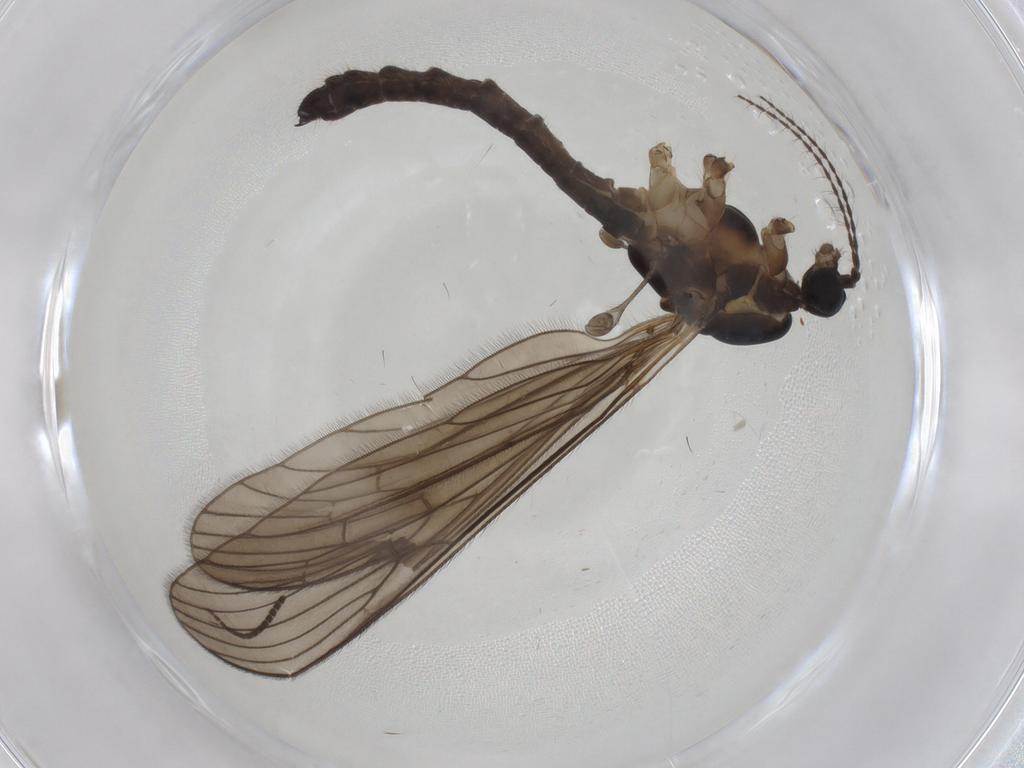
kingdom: Animalia
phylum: Arthropoda
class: Insecta
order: Diptera
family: Limoniidae
